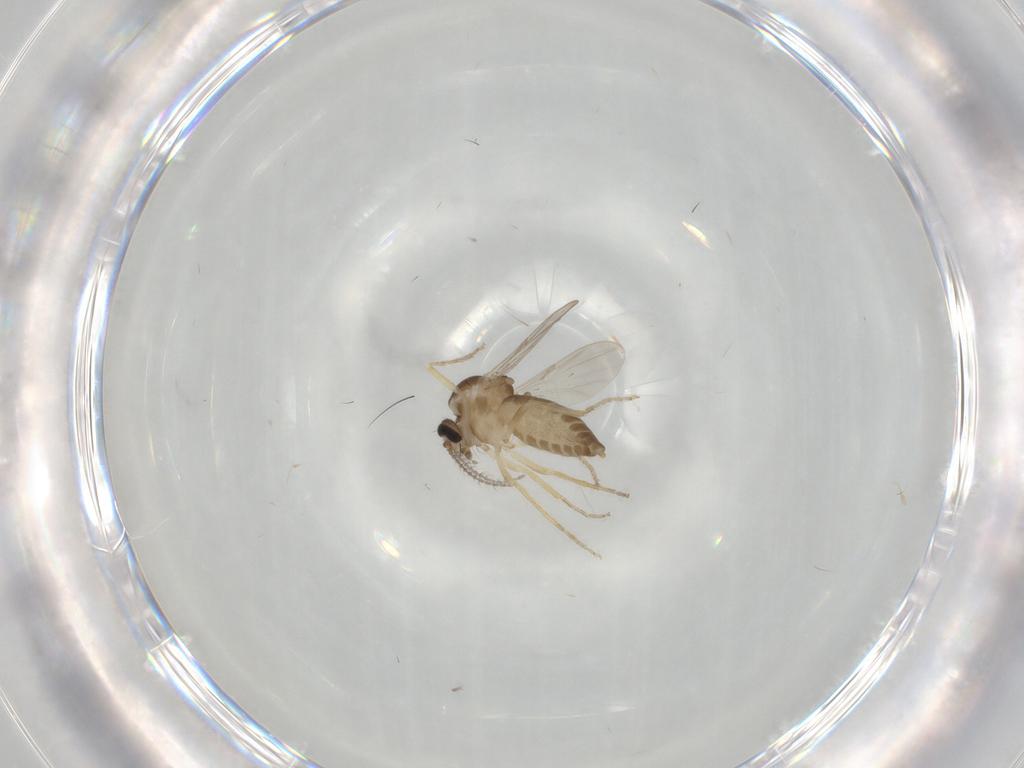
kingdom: Animalia
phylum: Arthropoda
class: Insecta
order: Diptera
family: Ceratopogonidae
